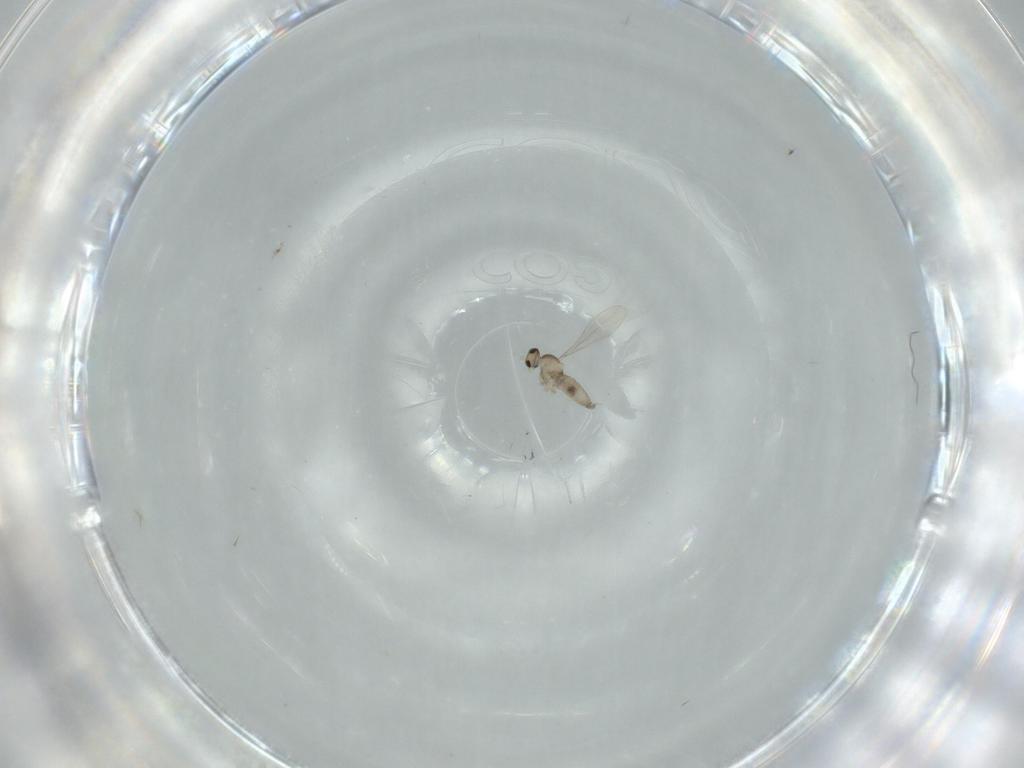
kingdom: Animalia
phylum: Arthropoda
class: Insecta
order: Diptera
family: Cecidomyiidae
